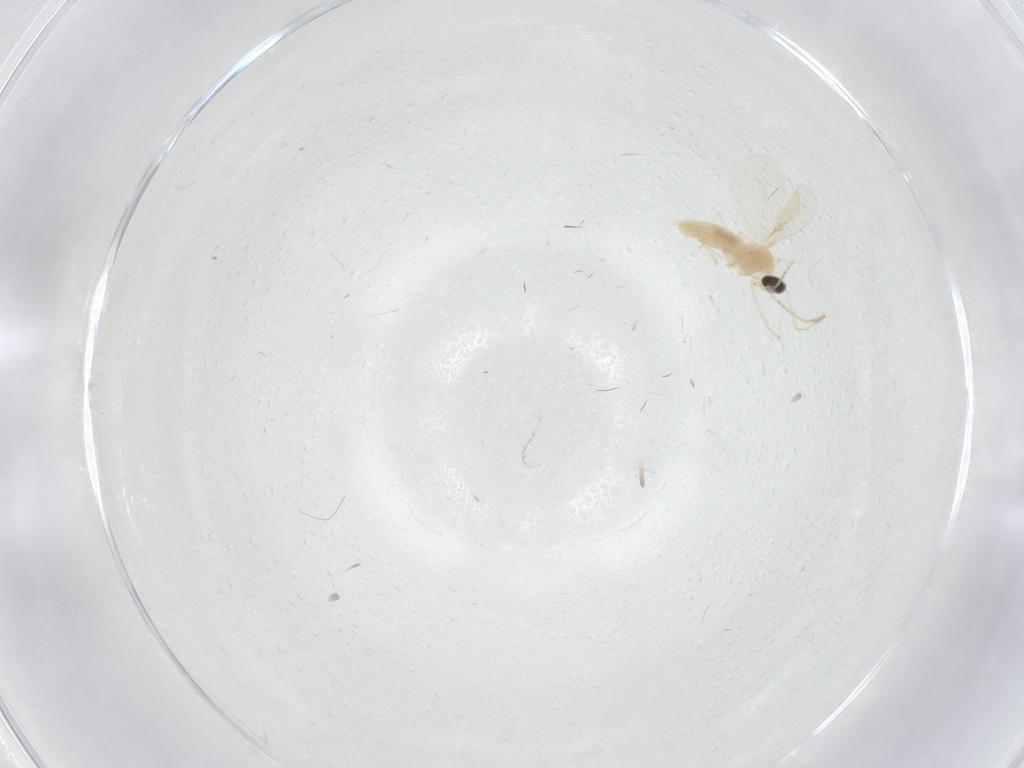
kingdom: Animalia
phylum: Arthropoda
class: Insecta
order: Diptera
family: Cecidomyiidae
